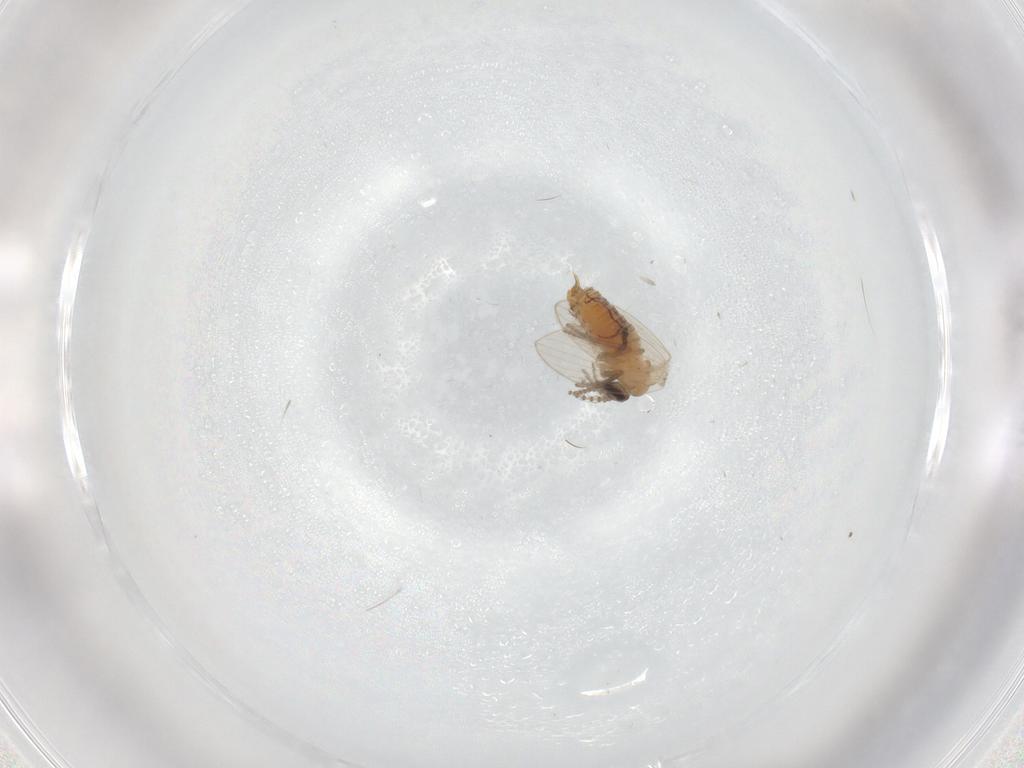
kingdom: Animalia
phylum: Arthropoda
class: Insecta
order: Diptera
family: Psychodidae
